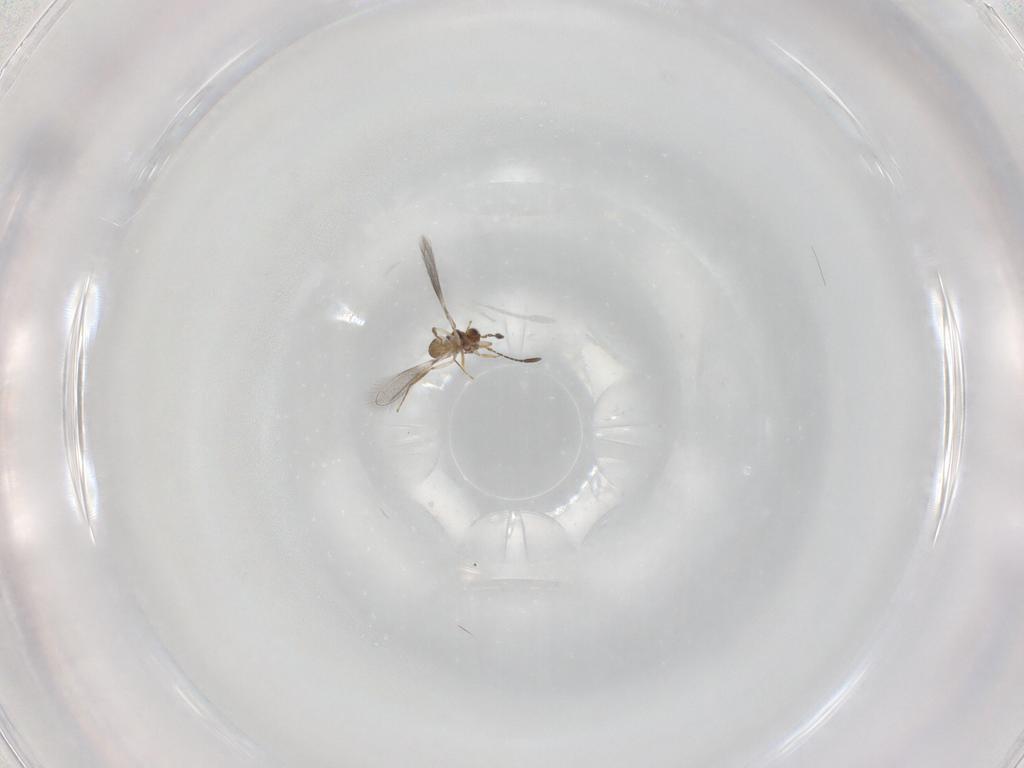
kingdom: Animalia
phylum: Arthropoda
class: Insecta
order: Hymenoptera
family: Mymaridae
